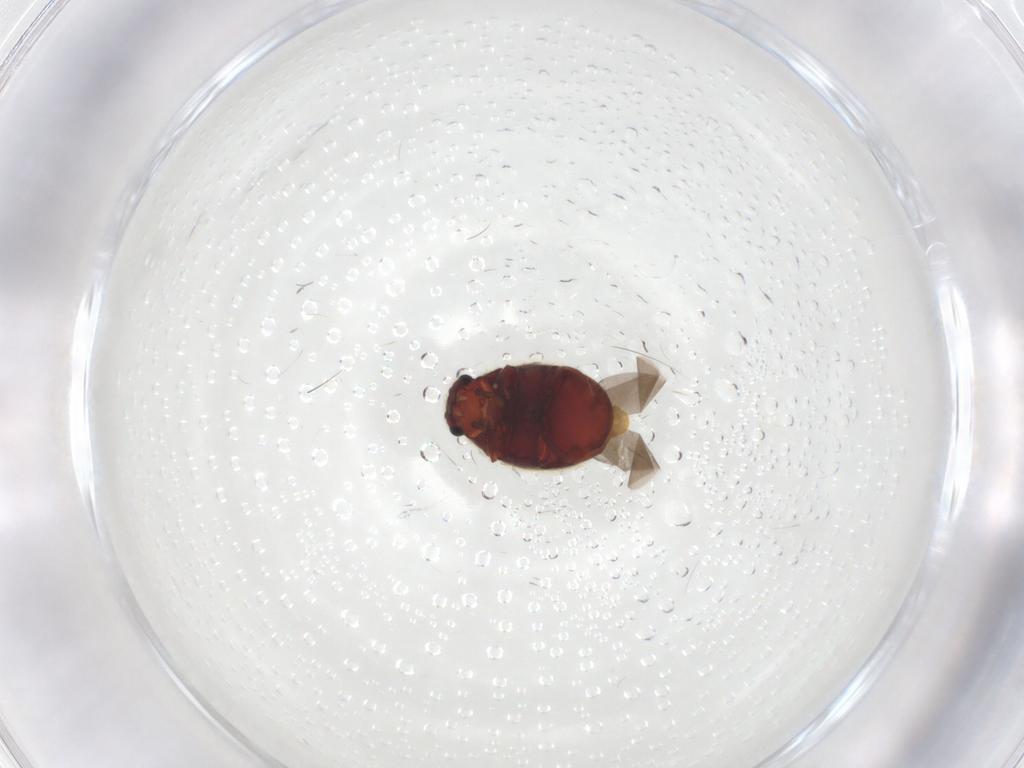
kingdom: Animalia
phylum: Arthropoda
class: Insecta
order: Coleoptera
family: Ptinidae
